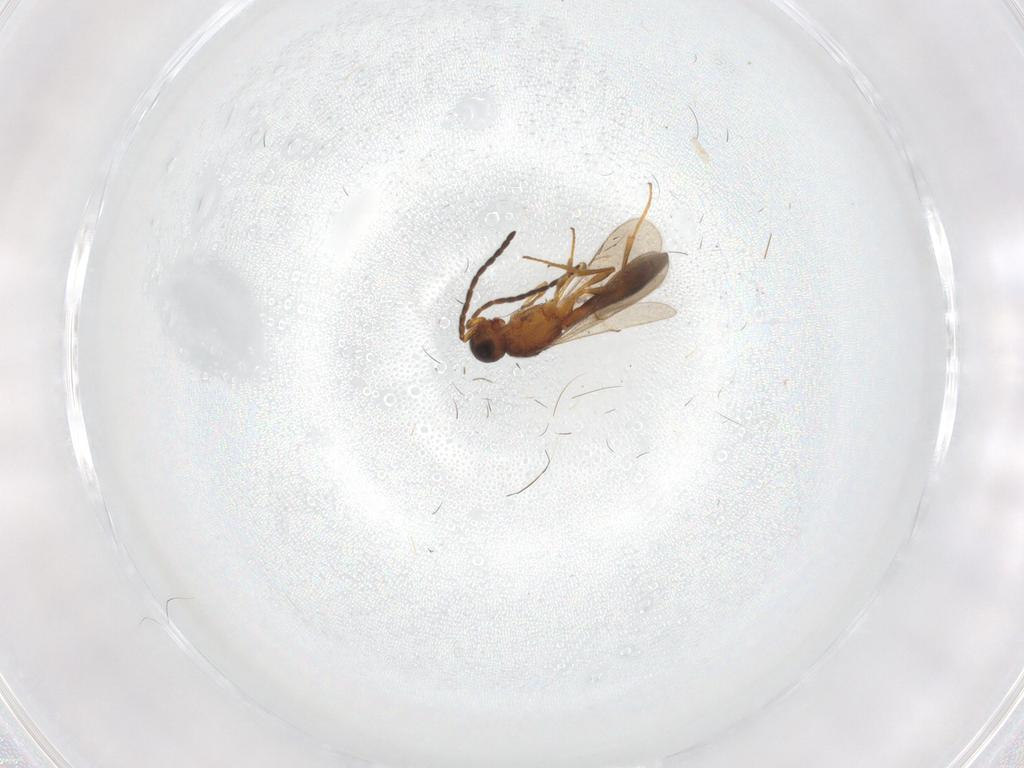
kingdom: Animalia
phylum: Arthropoda
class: Insecta
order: Hymenoptera
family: Scelionidae
